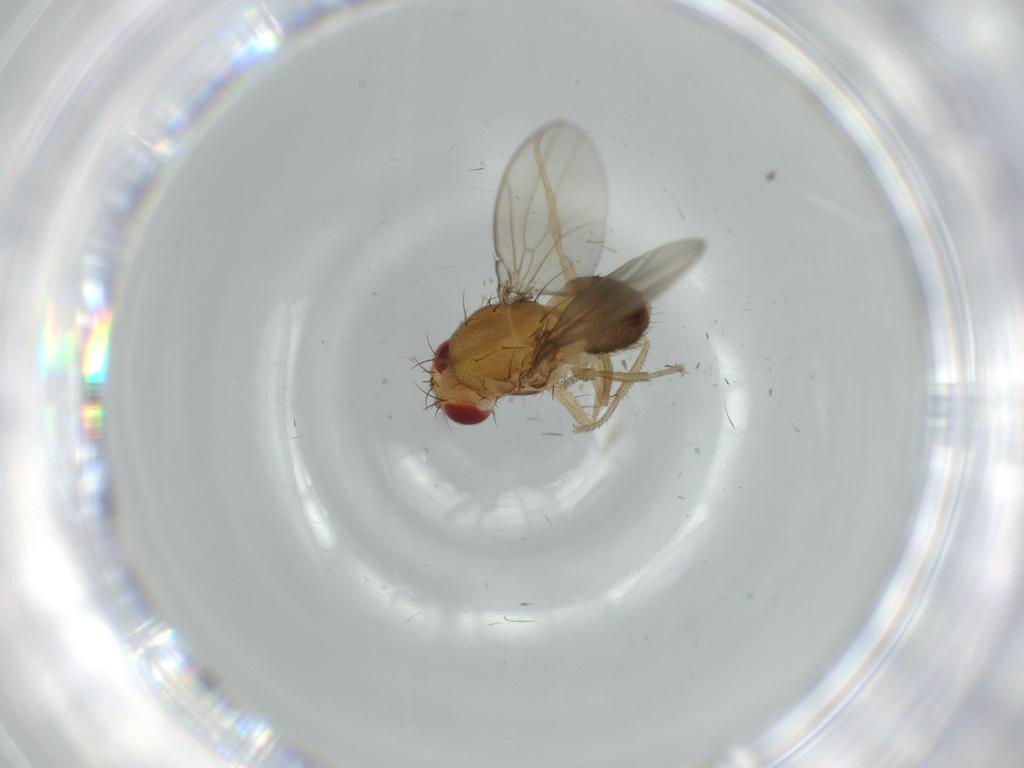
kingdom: Animalia
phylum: Arthropoda
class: Insecta
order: Diptera
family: Drosophilidae
